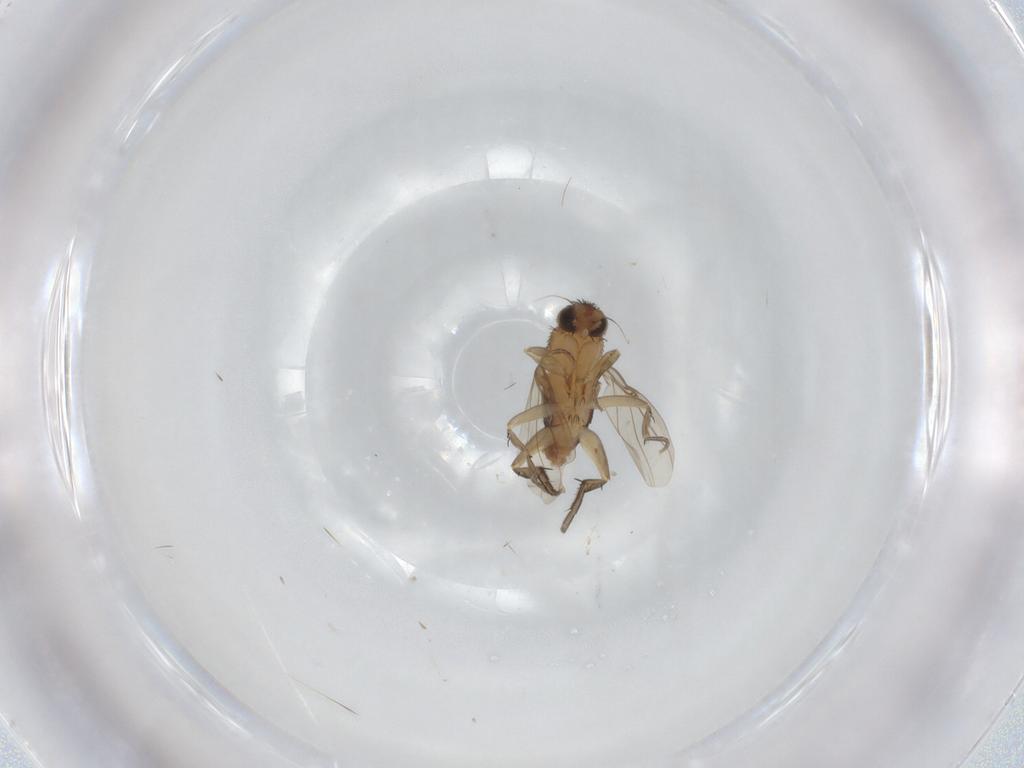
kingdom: Animalia
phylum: Arthropoda
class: Insecta
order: Diptera
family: Phoridae
